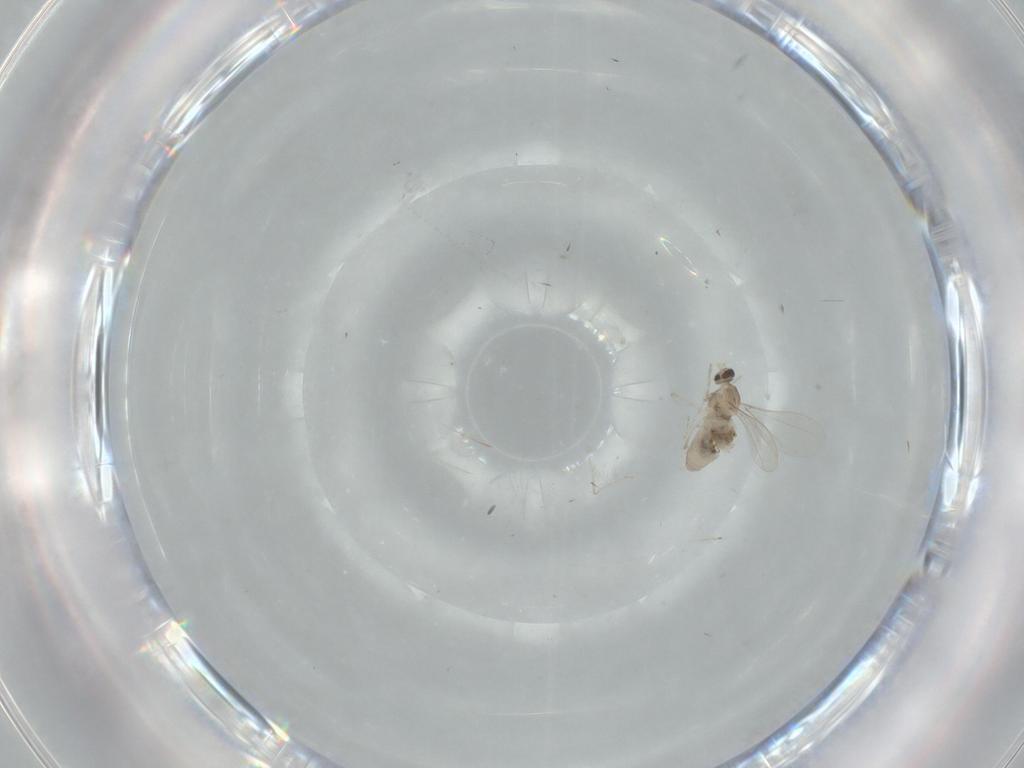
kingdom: Animalia
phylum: Arthropoda
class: Insecta
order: Diptera
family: Cecidomyiidae
